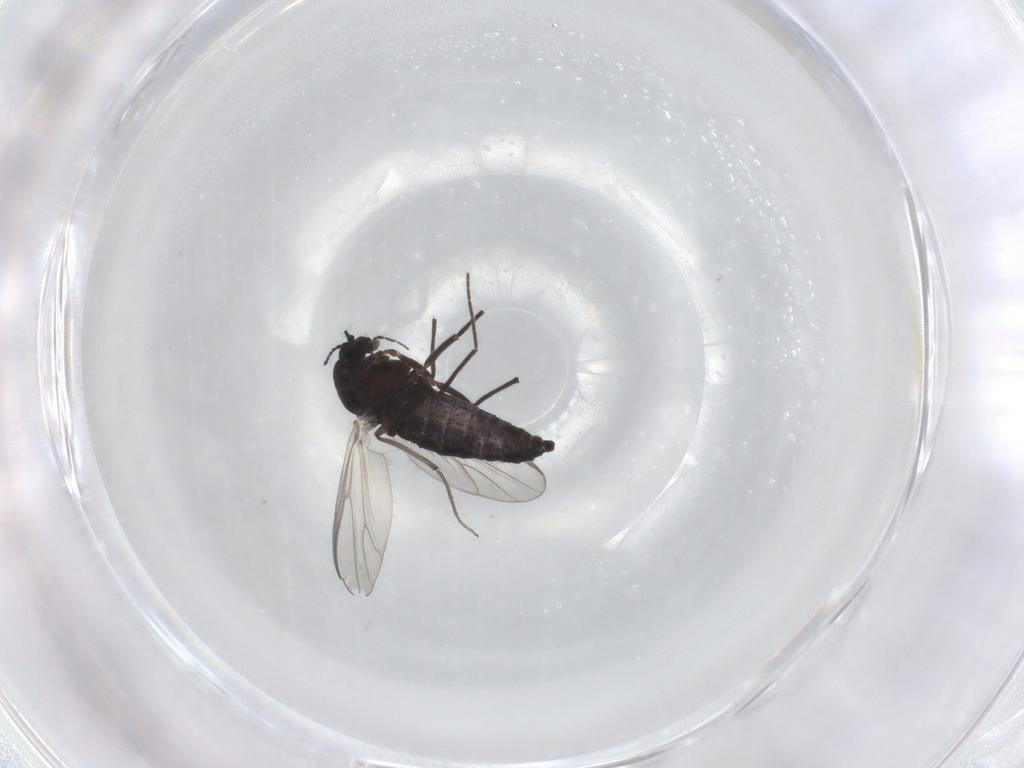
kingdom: Animalia
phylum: Arthropoda
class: Insecta
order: Diptera
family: Chironomidae
